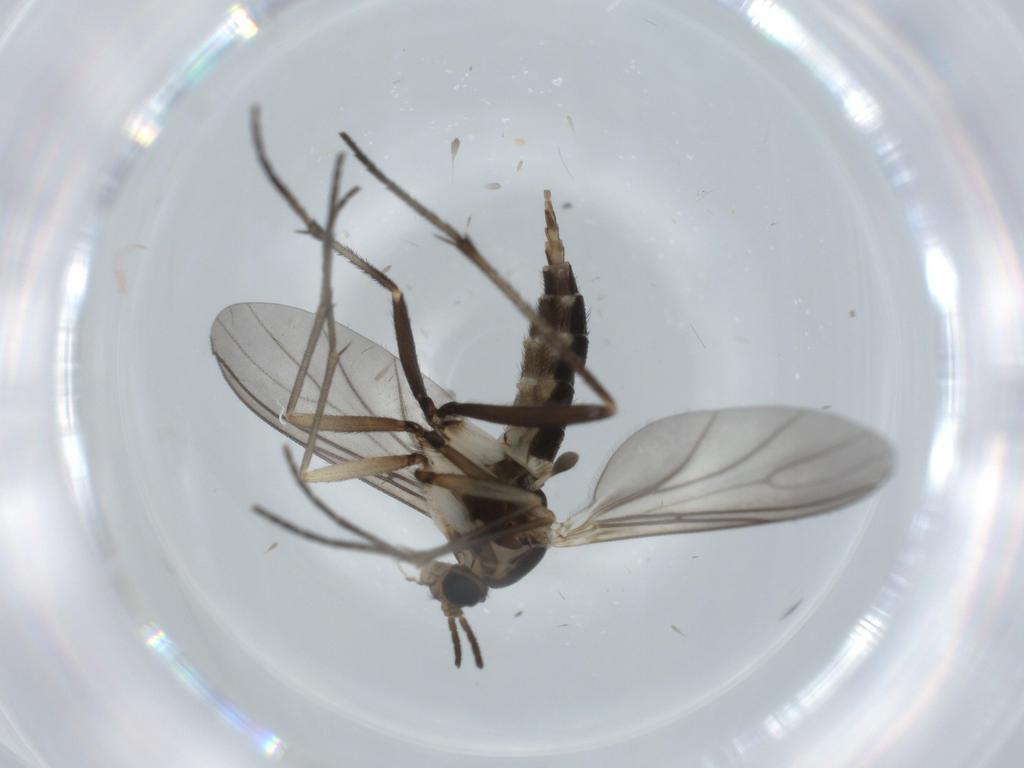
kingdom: Animalia
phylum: Arthropoda
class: Insecta
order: Diptera
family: Sciaridae
